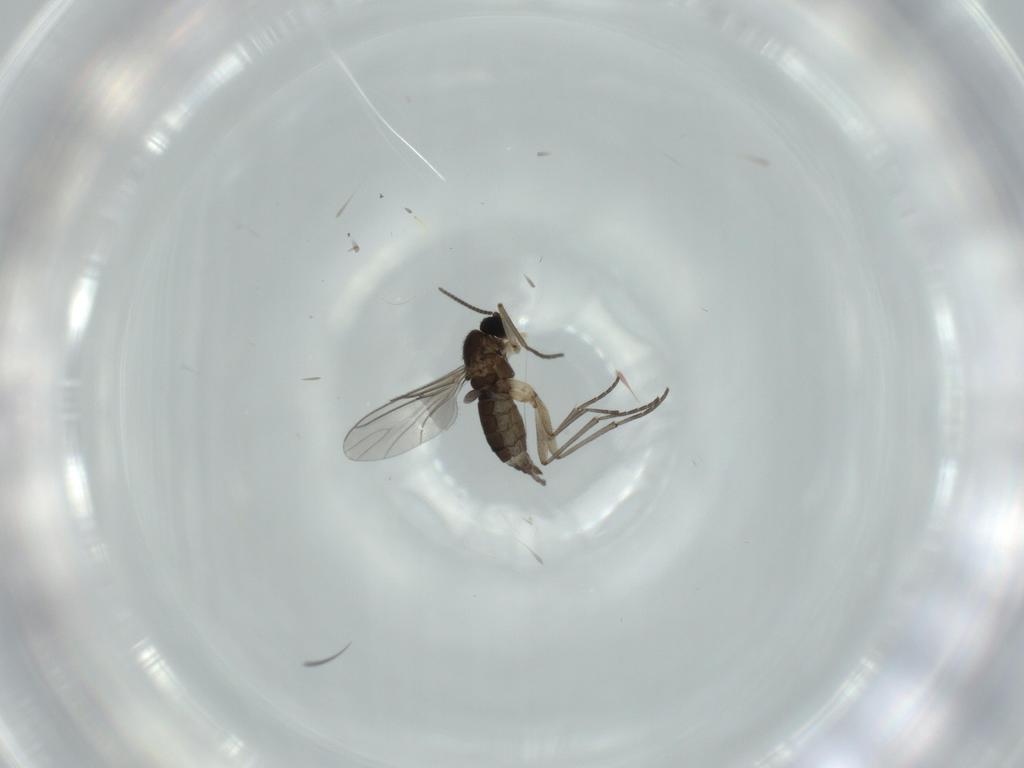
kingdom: Animalia
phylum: Arthropoda
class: Insecta
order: Diptera
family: Sciaridae
